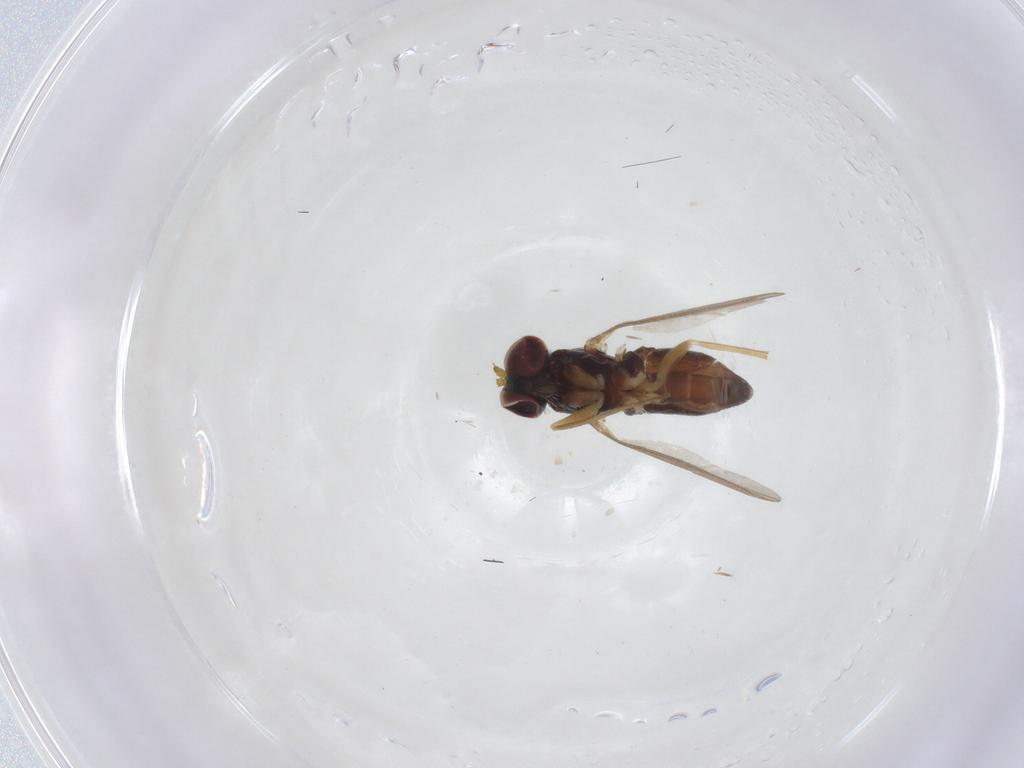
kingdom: Animalia
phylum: Arthropoda
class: Insecta
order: Diptera
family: Dolichopodidae
